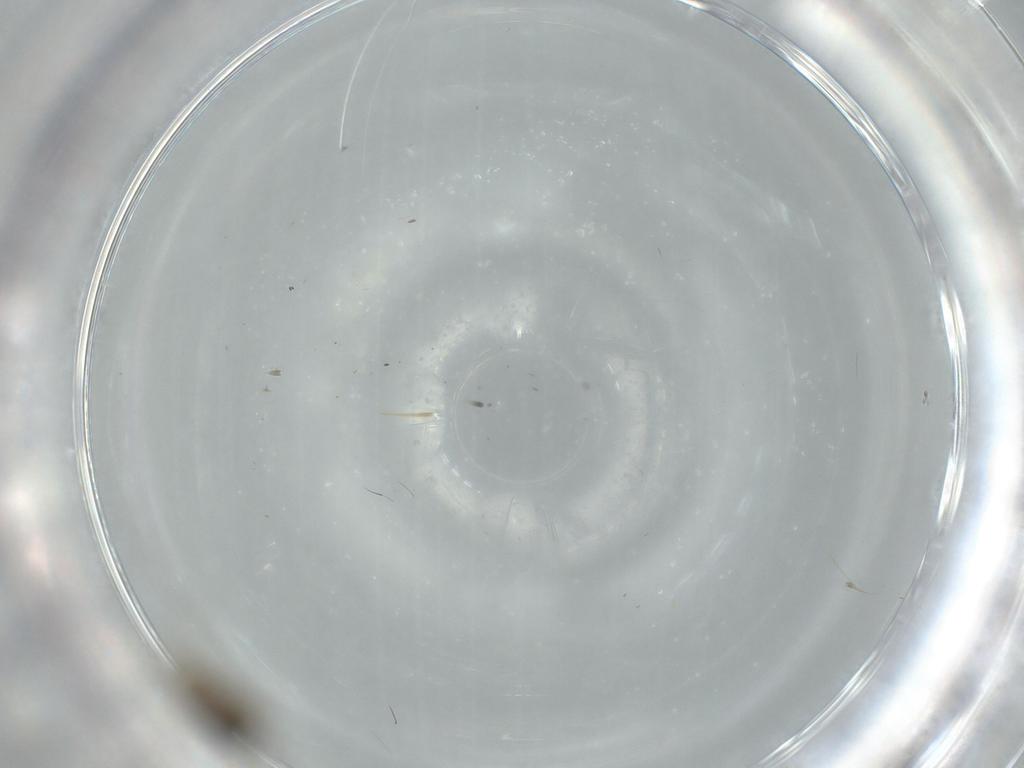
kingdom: Animalia
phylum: Arthropoda
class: Insecta
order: Diptera
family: Cecidomyiidae
